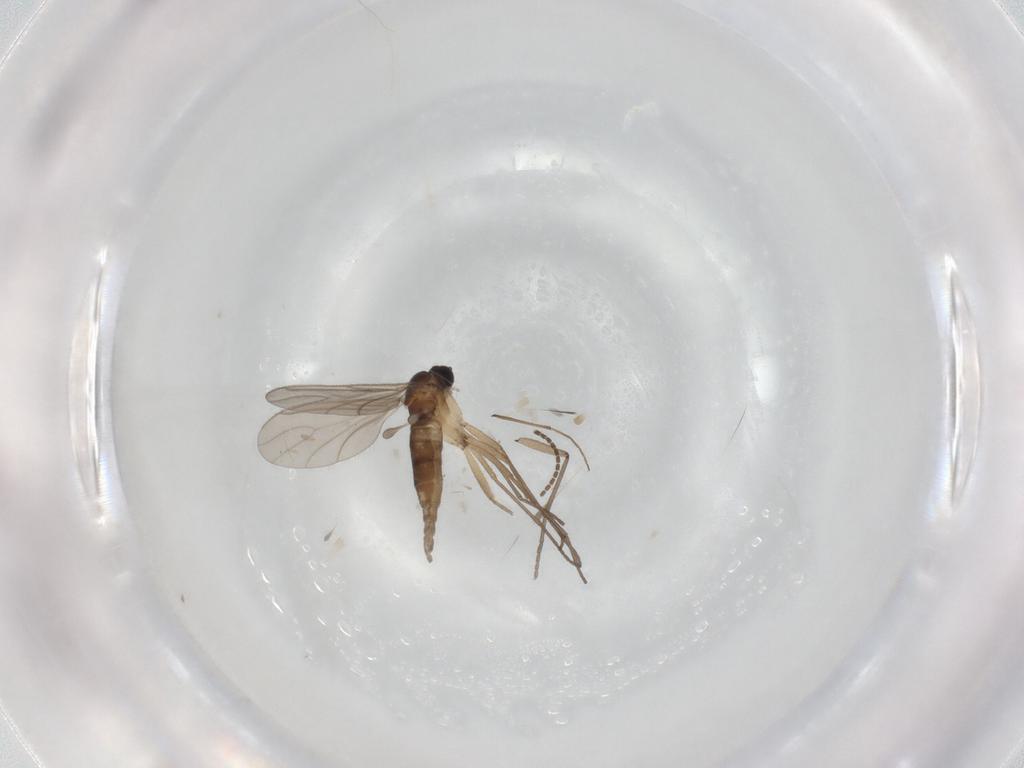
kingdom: Animalia
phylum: Arthropoda
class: Insecta
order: Diptera
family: Sciaridae
